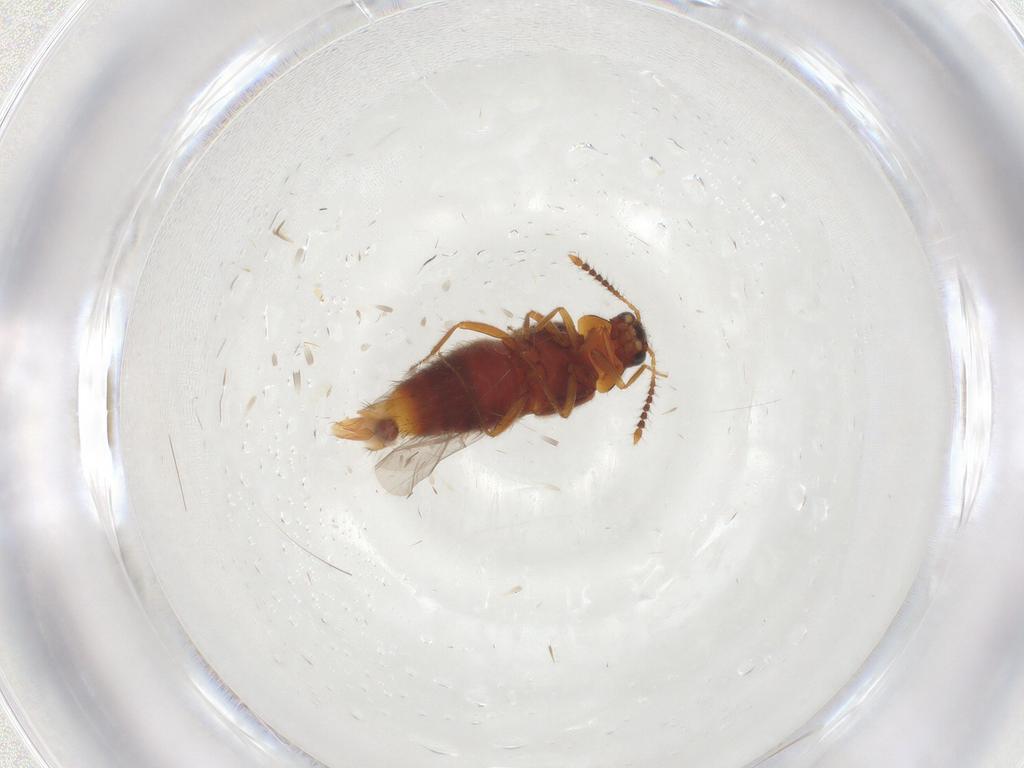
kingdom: Animalia
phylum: Arthropoda
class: Insecta
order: Coleoptera
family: Staphylinidae
